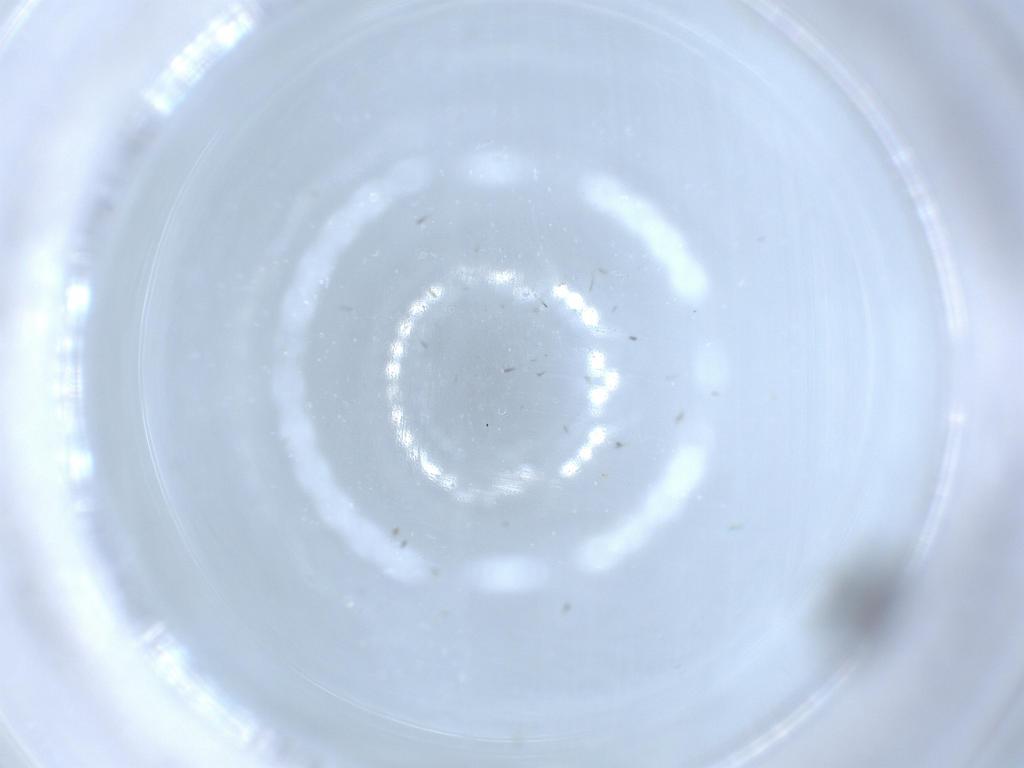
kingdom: Animalia
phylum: Arthropoda
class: Insecta
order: Diptera
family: Sciaridae
